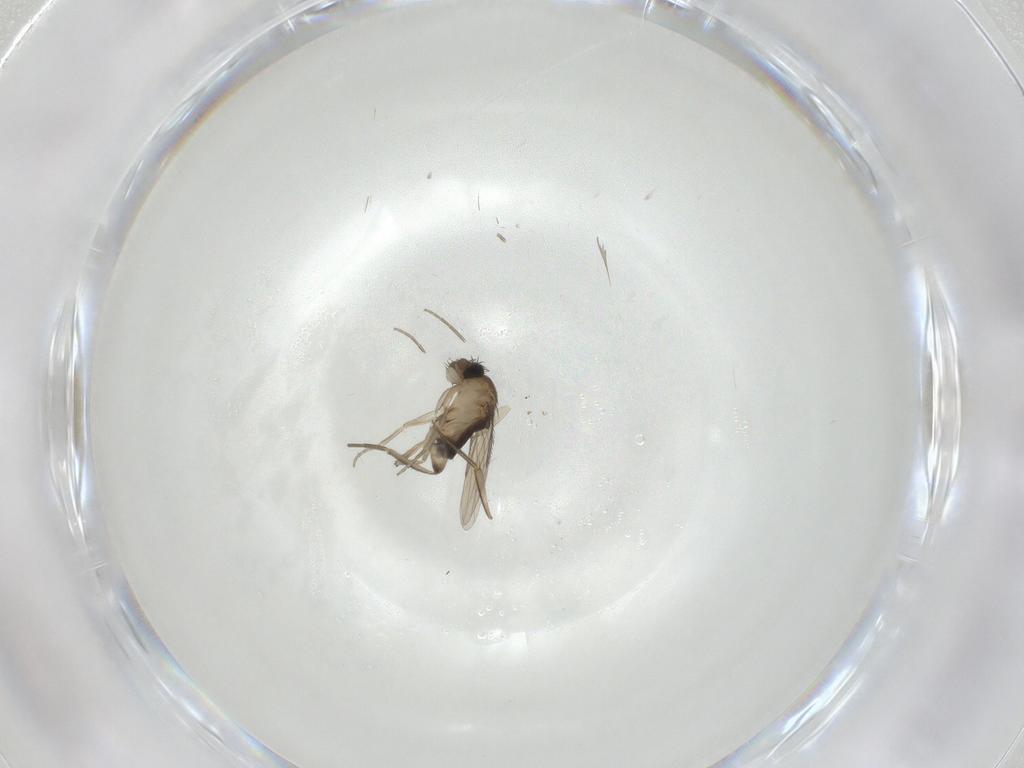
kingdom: Animalia
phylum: Arthropoda
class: Insecta
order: Diptera
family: Phoridae
